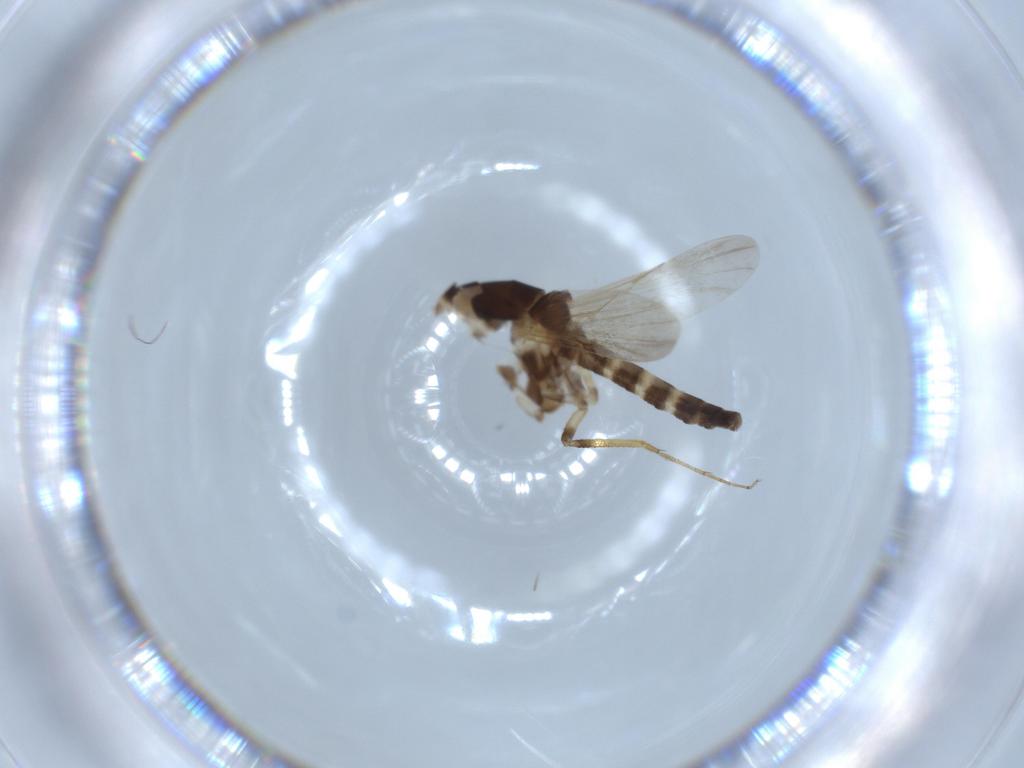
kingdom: Animalia
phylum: Arthropoda
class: Insecta
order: Diptera
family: Ceratopogonidae
